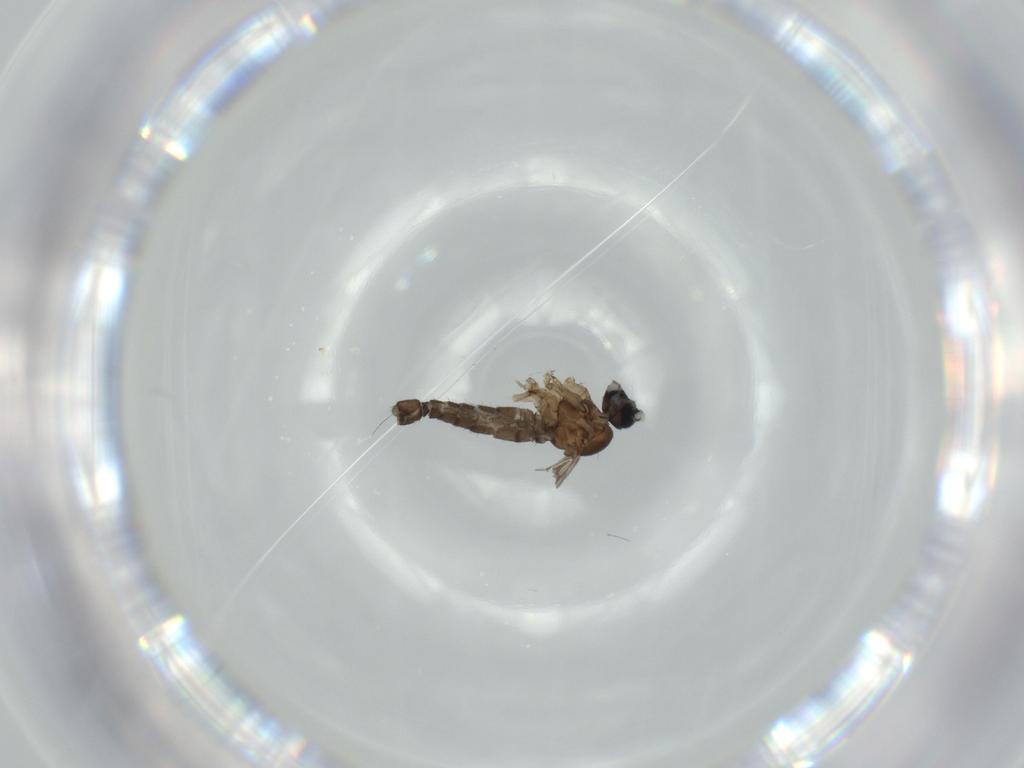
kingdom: Animalia
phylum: Arthropoda
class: Insecta
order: Diptera
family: Sciaridae
